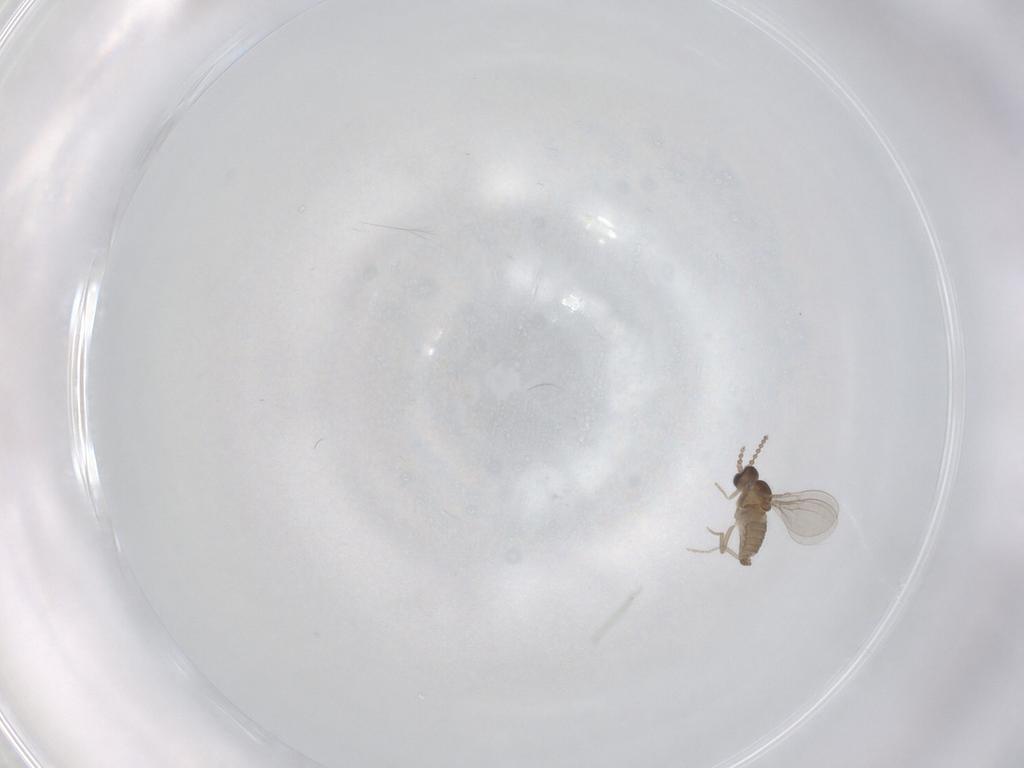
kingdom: Animalia
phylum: Arthropoda
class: Insecta
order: Diptera
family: Cecidomyiidae
